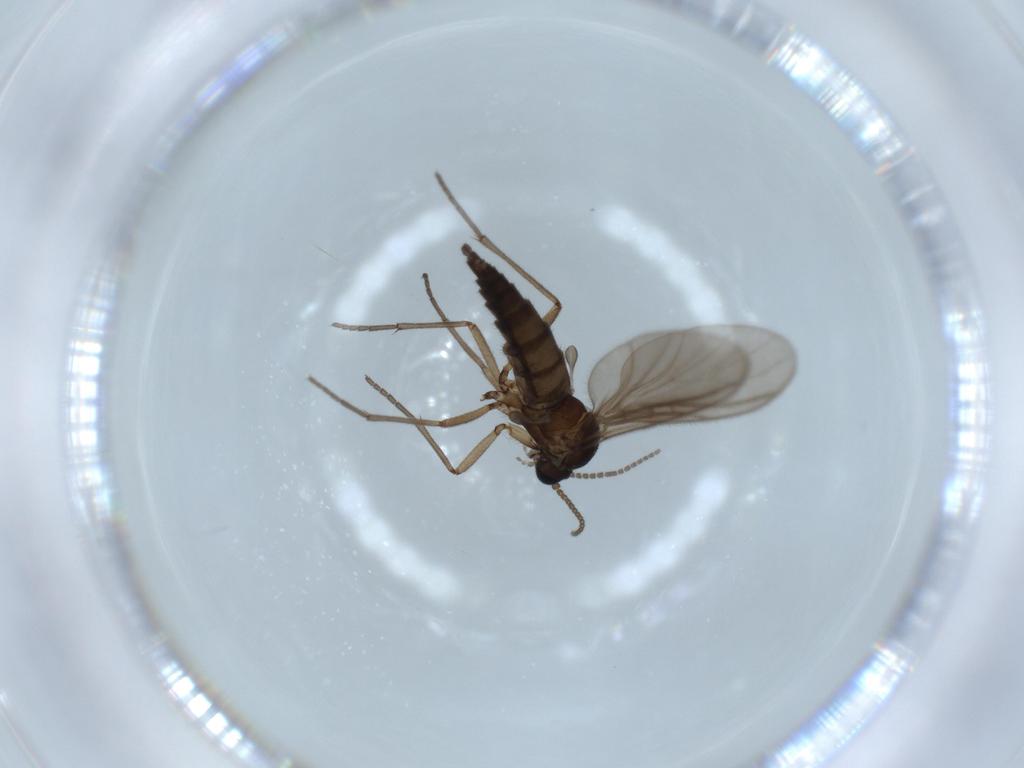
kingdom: Animalia
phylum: Arthropoda
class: Insecta
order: Diptera
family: Sciaridae
